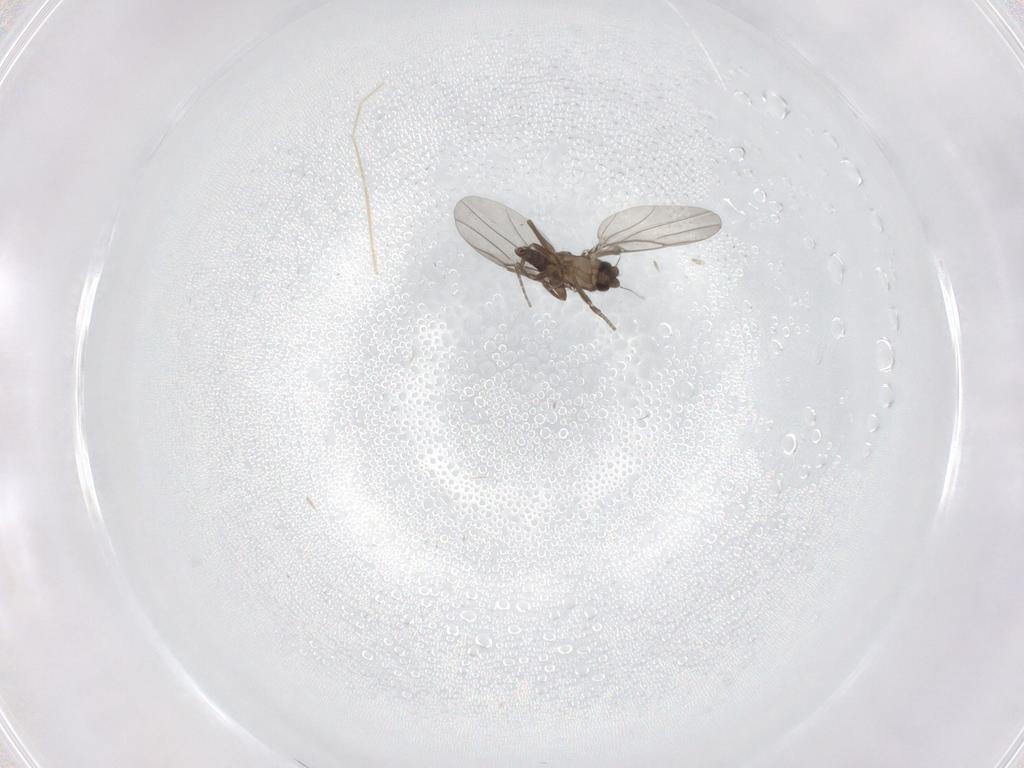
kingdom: Animalia
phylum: Arthropoda
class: Insecta
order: Diptera
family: Chironomidae
